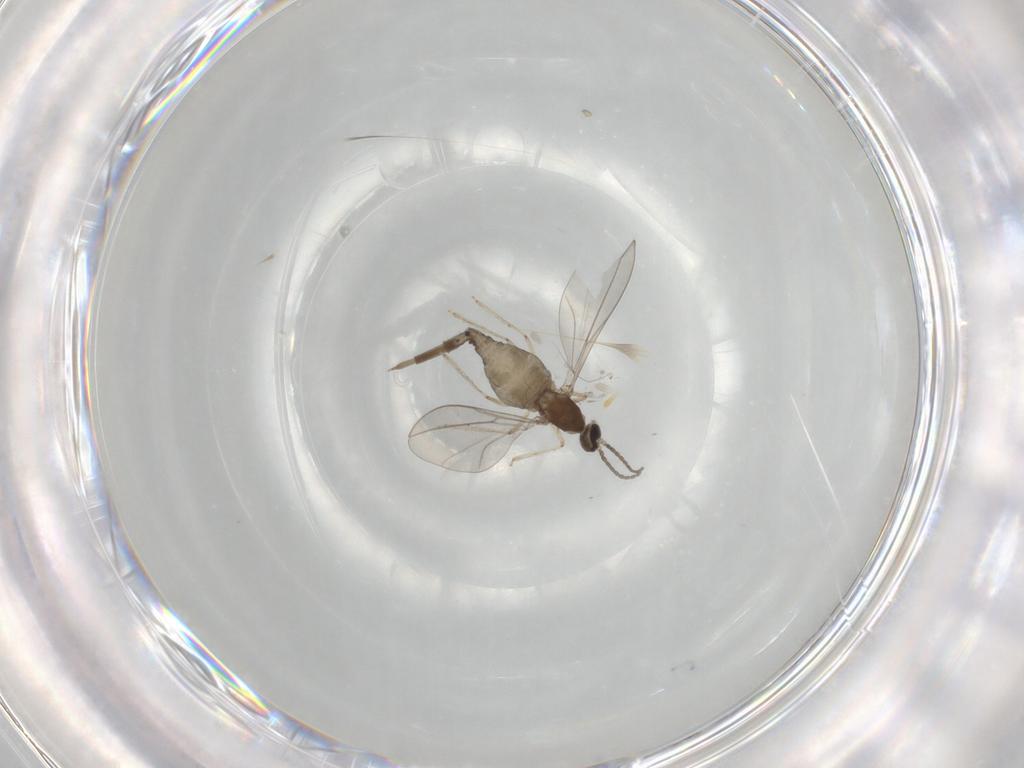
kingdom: Animalia
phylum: Arthropoda
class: Insecta
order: Diptera
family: Cecidomyiidae
